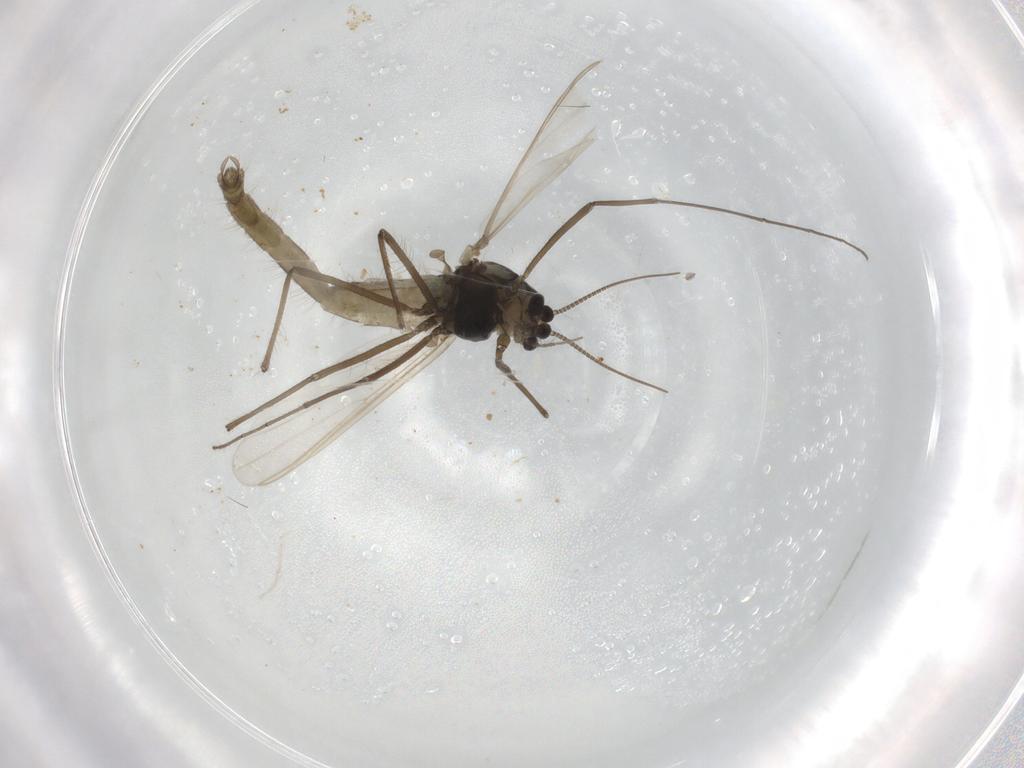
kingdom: Animalia
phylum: Arthropoda
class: Insecta
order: Diptera
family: Chironomidae
